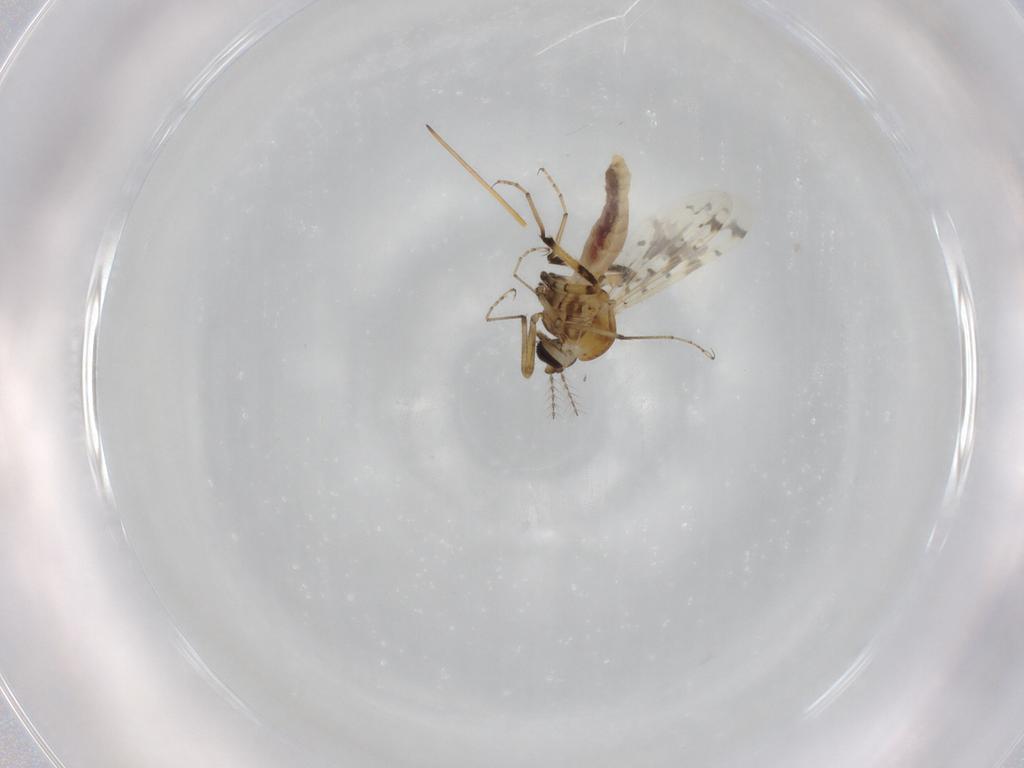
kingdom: Animalia
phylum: Arthropoda
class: Insecta
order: Diptera
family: Ceratopogonidae
